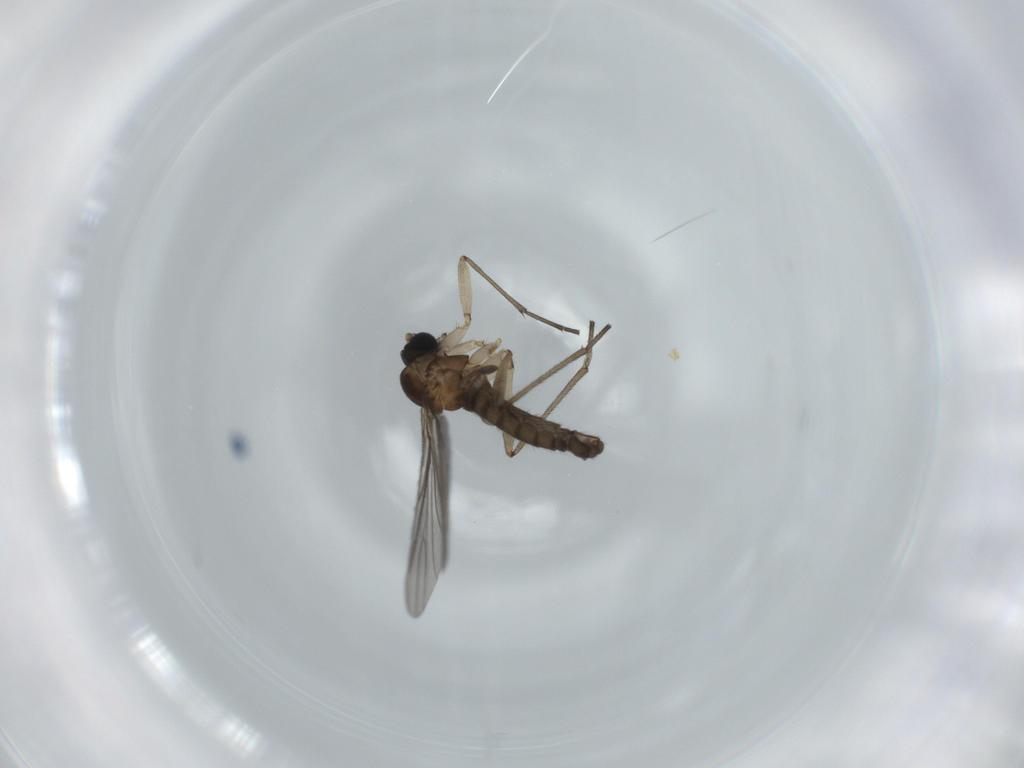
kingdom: Animalia
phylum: Arthropoda
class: Insecta
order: Diptera
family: Sciaridae
